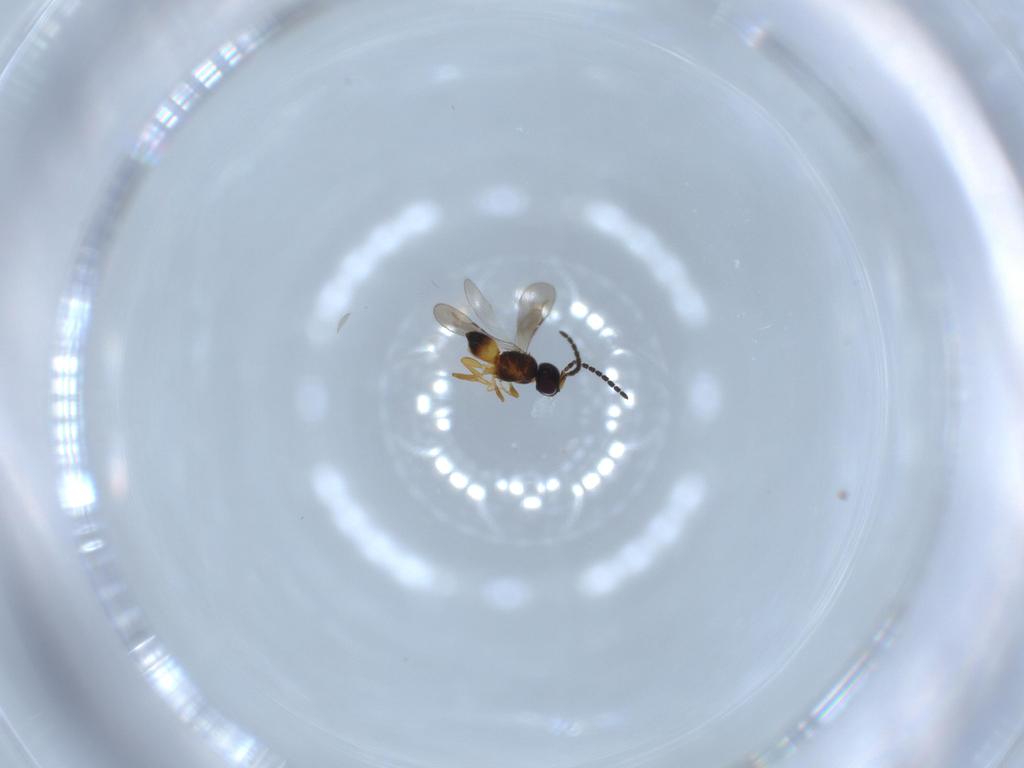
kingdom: Animalia
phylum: Arthropoda
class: Insecta
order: Hymenoptera
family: Ceraphronidae
